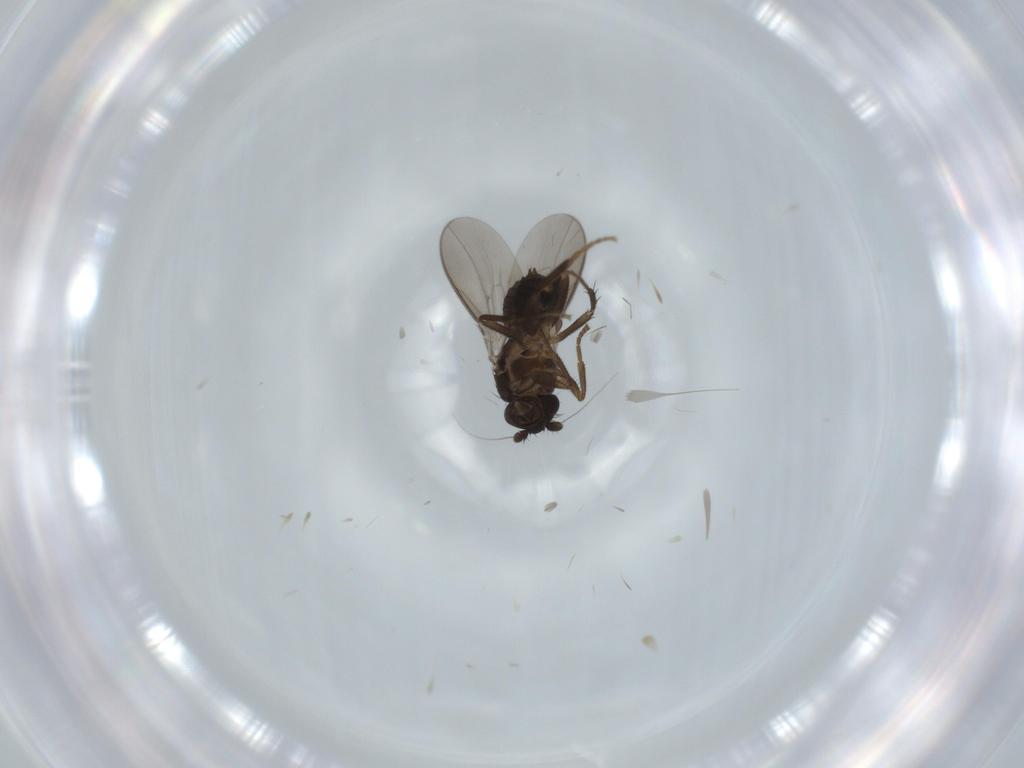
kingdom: Animalia
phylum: Arthropoda
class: Insecta
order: Diptera
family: Sphaeroceridae
